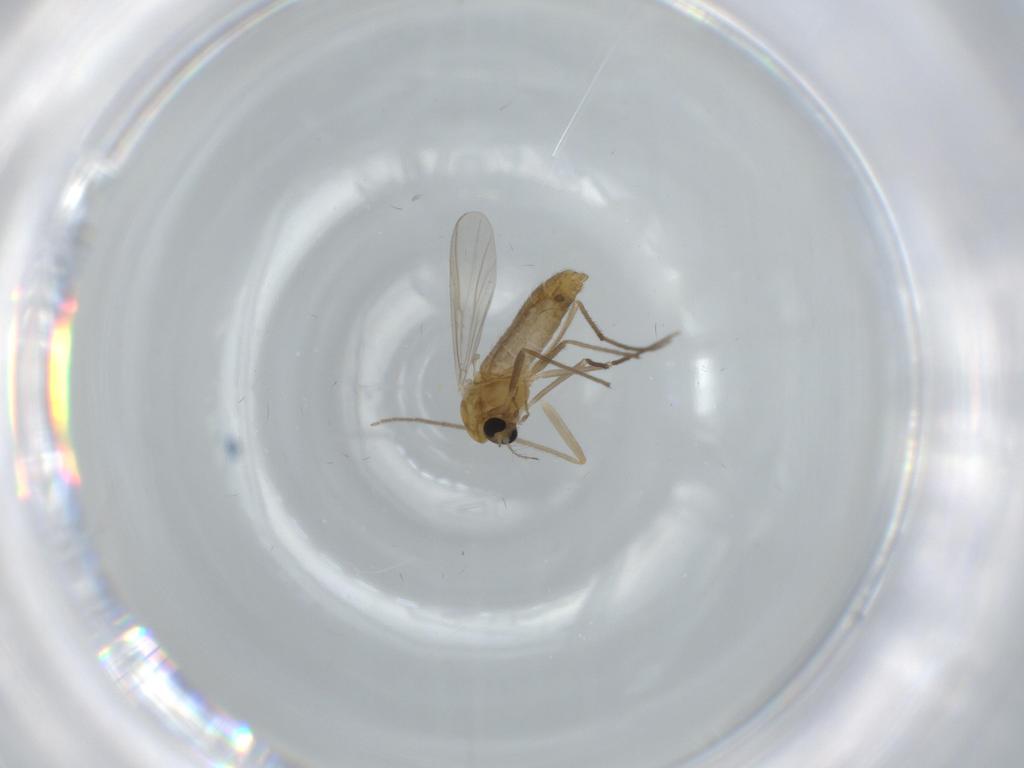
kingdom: Animalia
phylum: Arthropoda
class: Insecta
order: Diptera
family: Chironomidae
